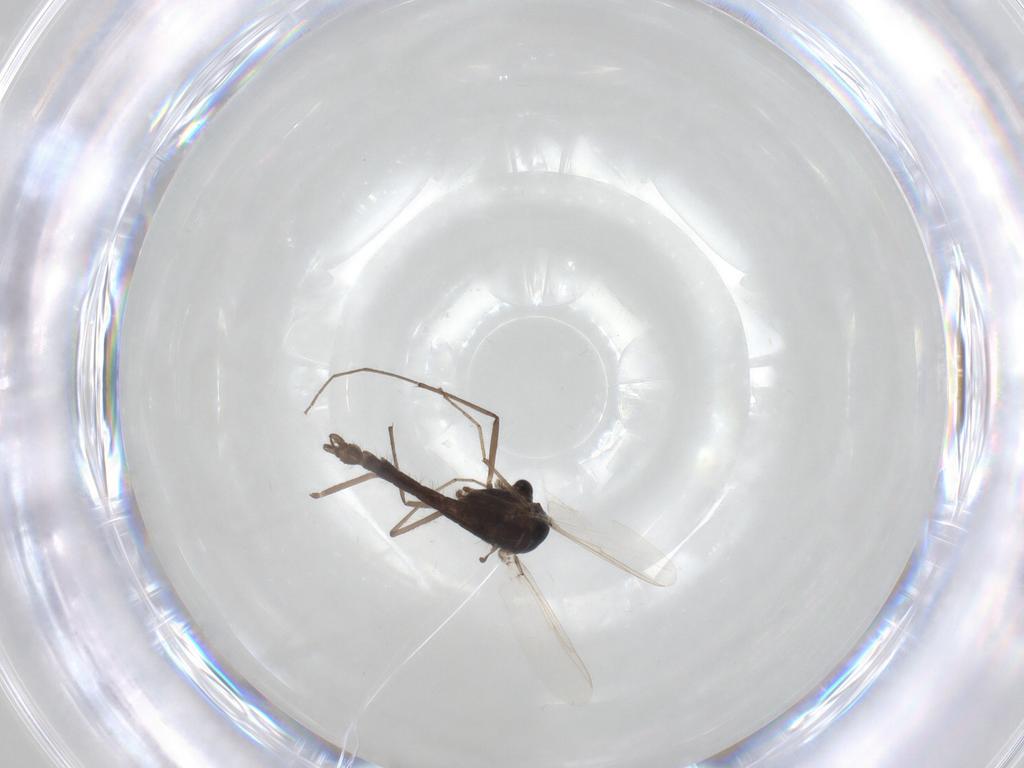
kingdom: Animalia
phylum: Arthropoda
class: Insecta
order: Diptera
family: Chironomidae
